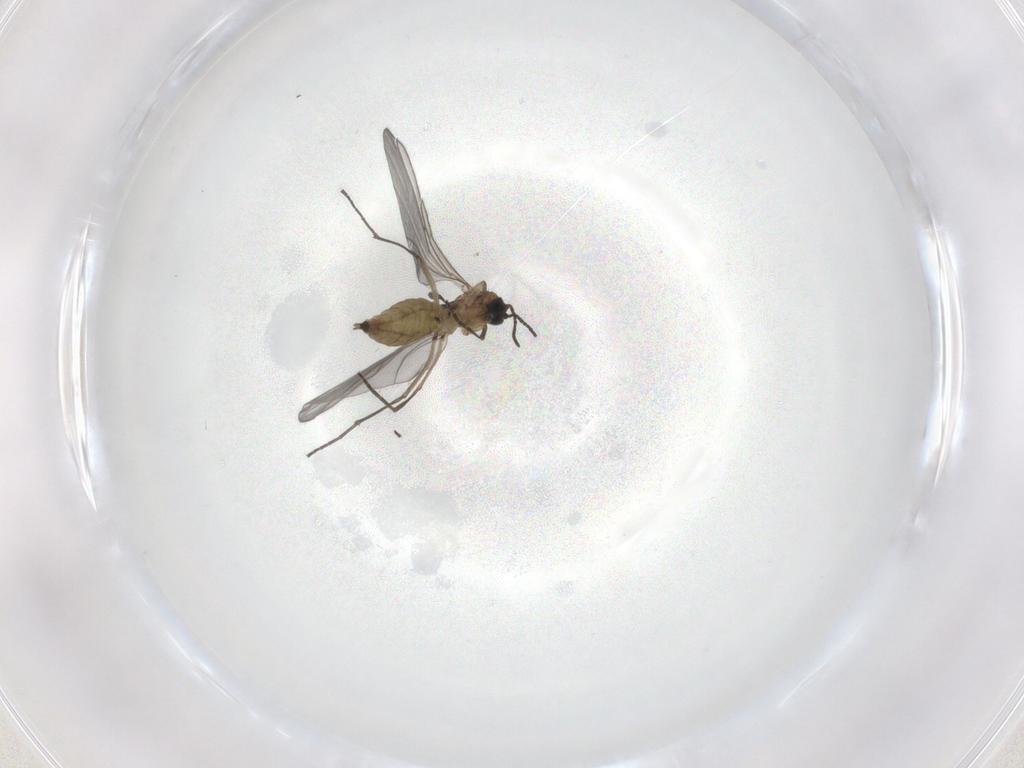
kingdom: Animalia
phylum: Arthropoda
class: Insecta
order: Diptera
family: Sciaridae
